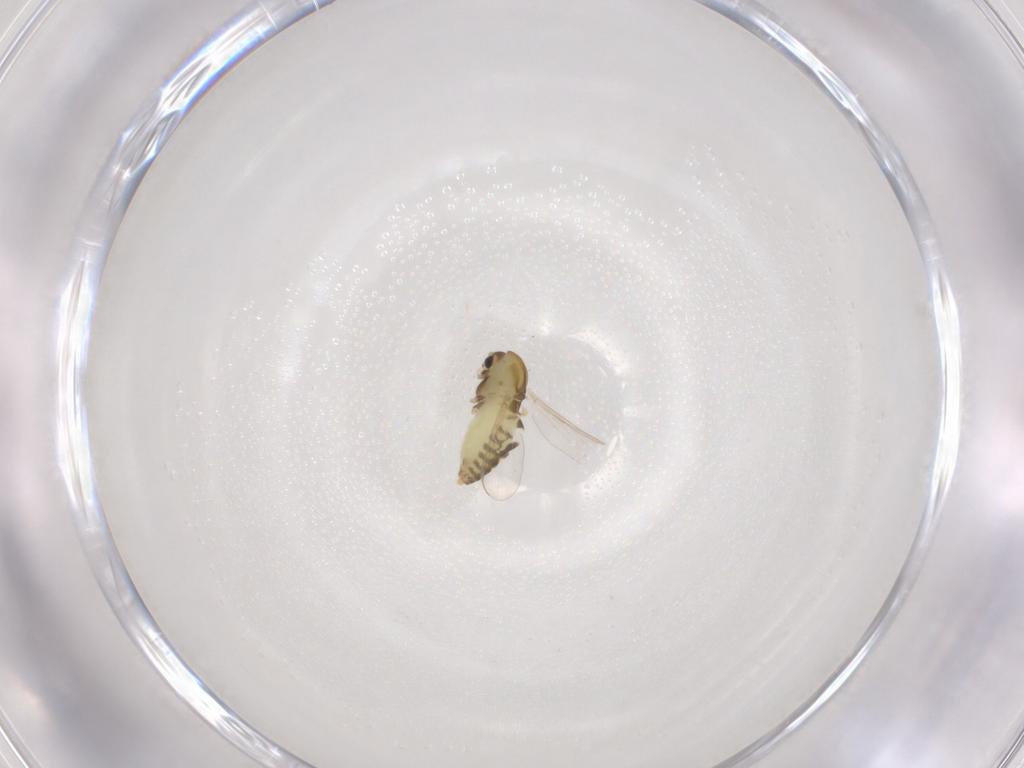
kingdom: Animalia
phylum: Arthropoda
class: Insecta
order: Diptera
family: Chironomidae
